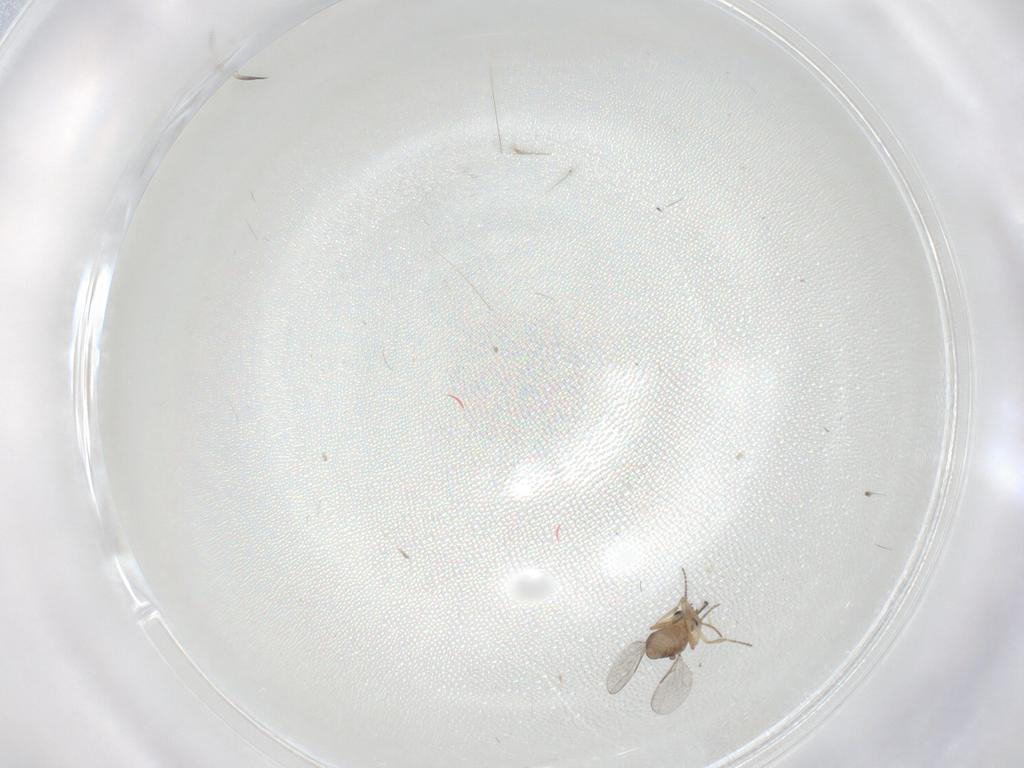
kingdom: Animalia
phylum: Arthropoda
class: Insecta
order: Diptera
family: Ceratopogonidae
